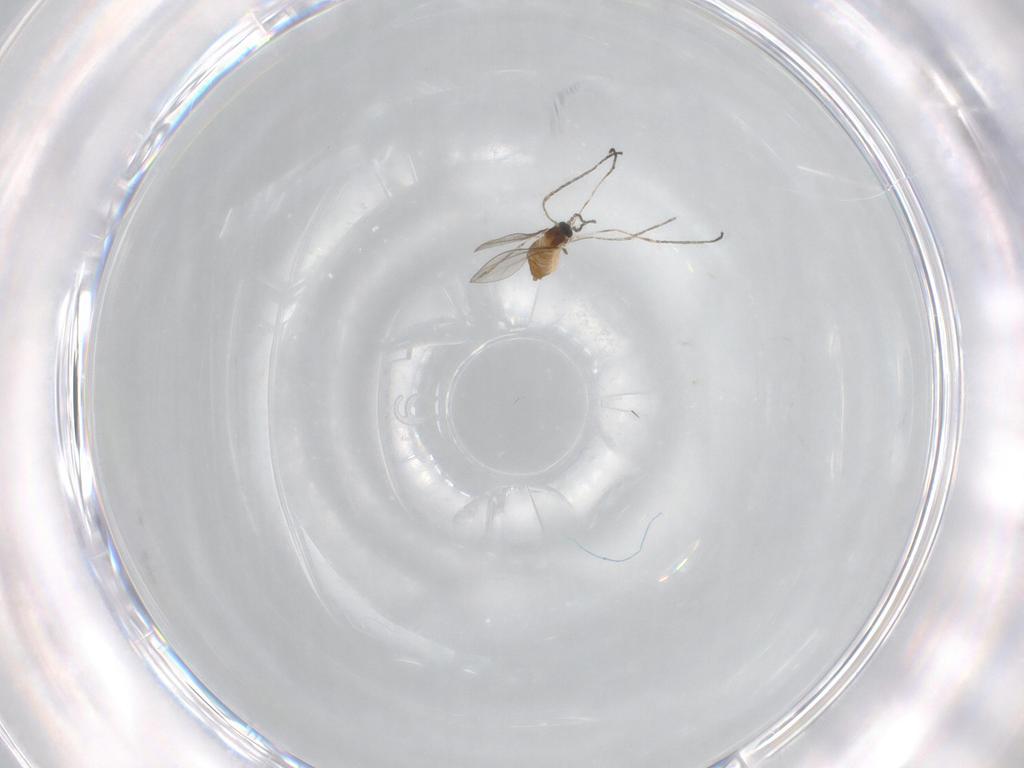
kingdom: Animalia
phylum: Arthropoda
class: Insecta
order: Diptera
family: Cecidomyiidae
